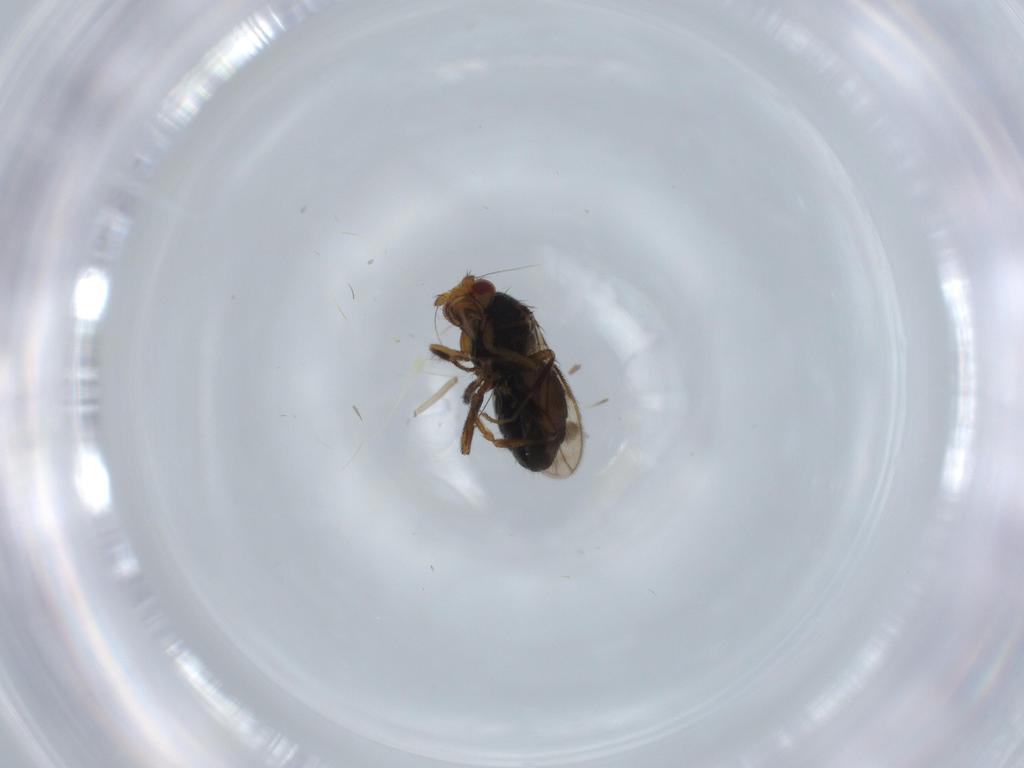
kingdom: Animalia
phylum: Arthropoda
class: Insecta
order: Diptera
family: Sphaeroceridae
